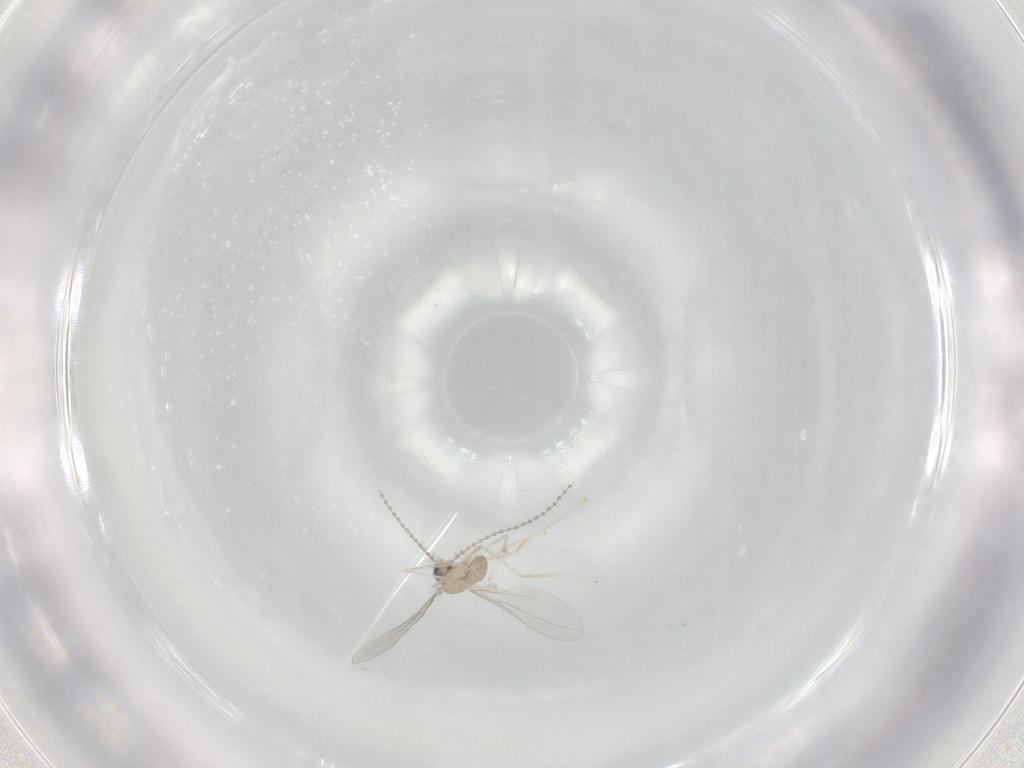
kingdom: Animalia
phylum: Arthropoda
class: Insecta
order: Diptera
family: Cecidomyiidae
